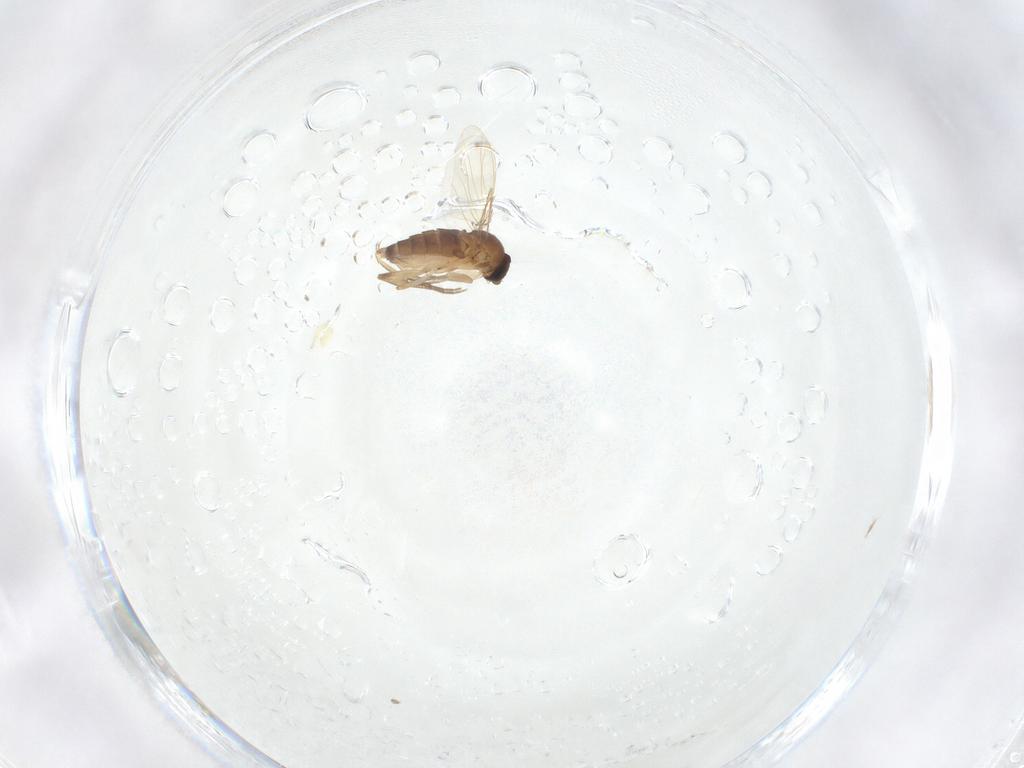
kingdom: Animalia
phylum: Arthropoda
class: Insecta
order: Diptera
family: Phoridae
